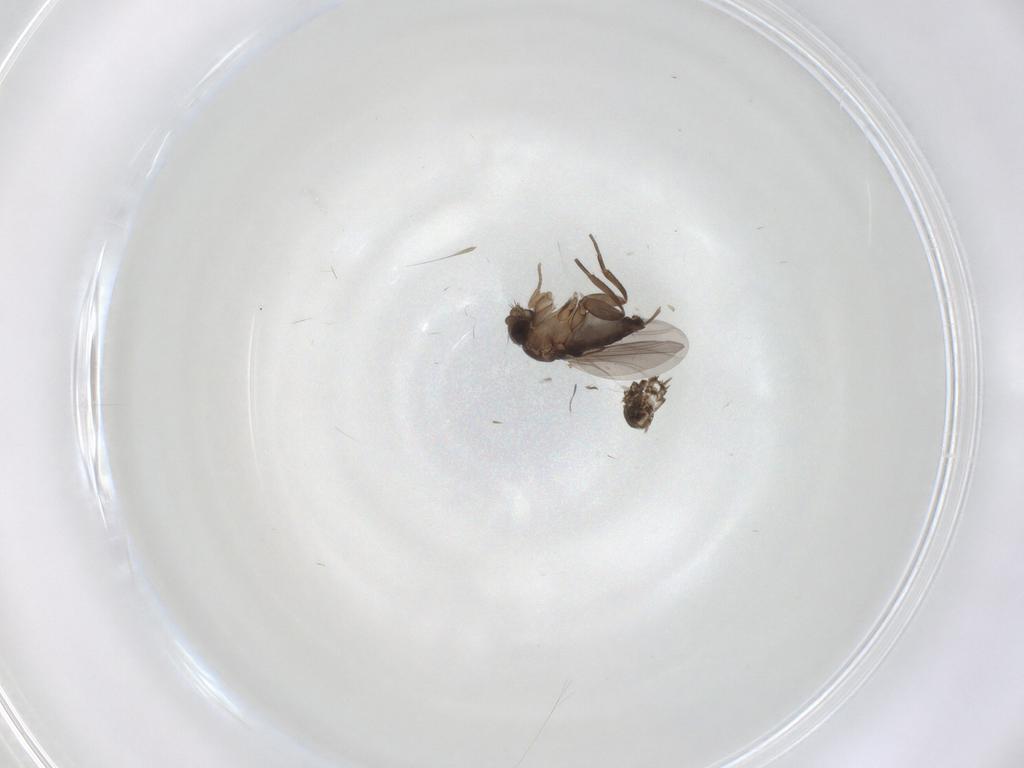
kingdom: Animalia
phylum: Arthropoda
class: Insecta
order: Diptera
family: Phoridae
